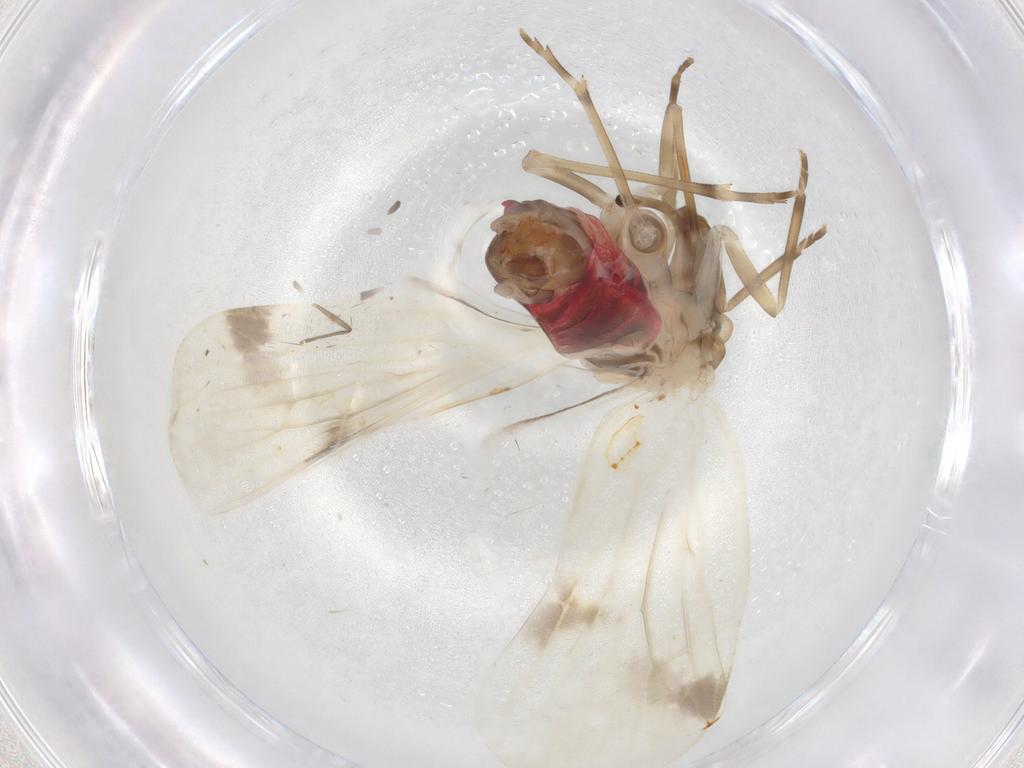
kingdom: Animalia
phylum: Arthropoda
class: Insecta
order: Hemiptera
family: Achilidae
